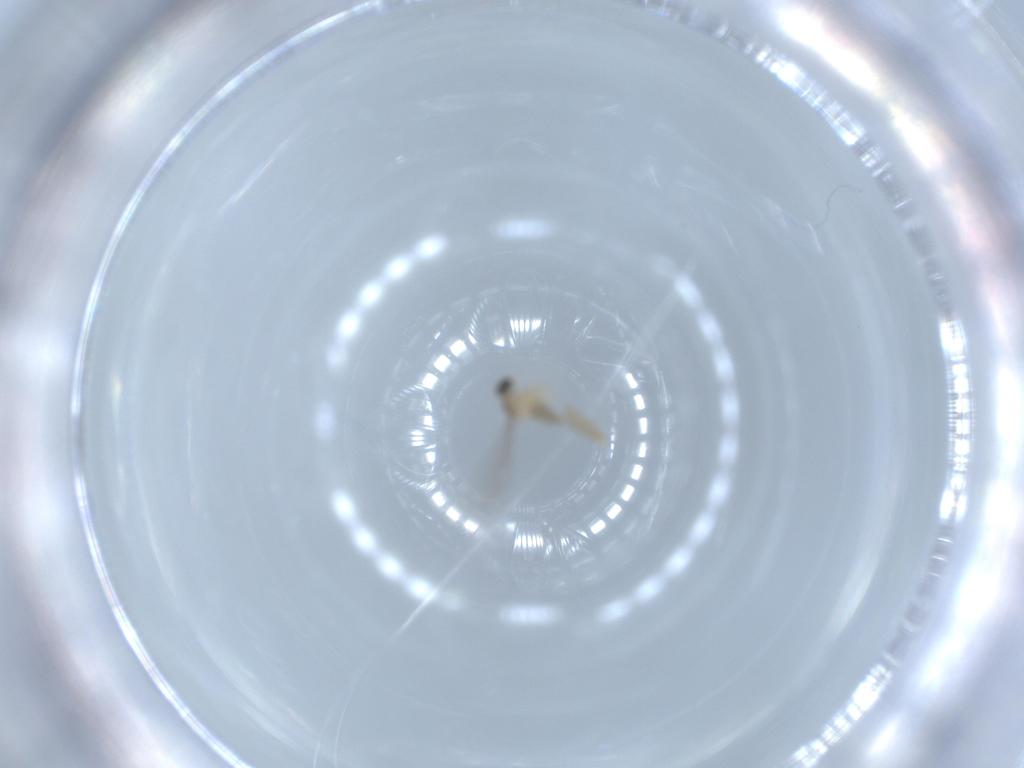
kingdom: Animalia
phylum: Arthropoda
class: Insecta
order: Diptera
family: Cecidomyiidae
